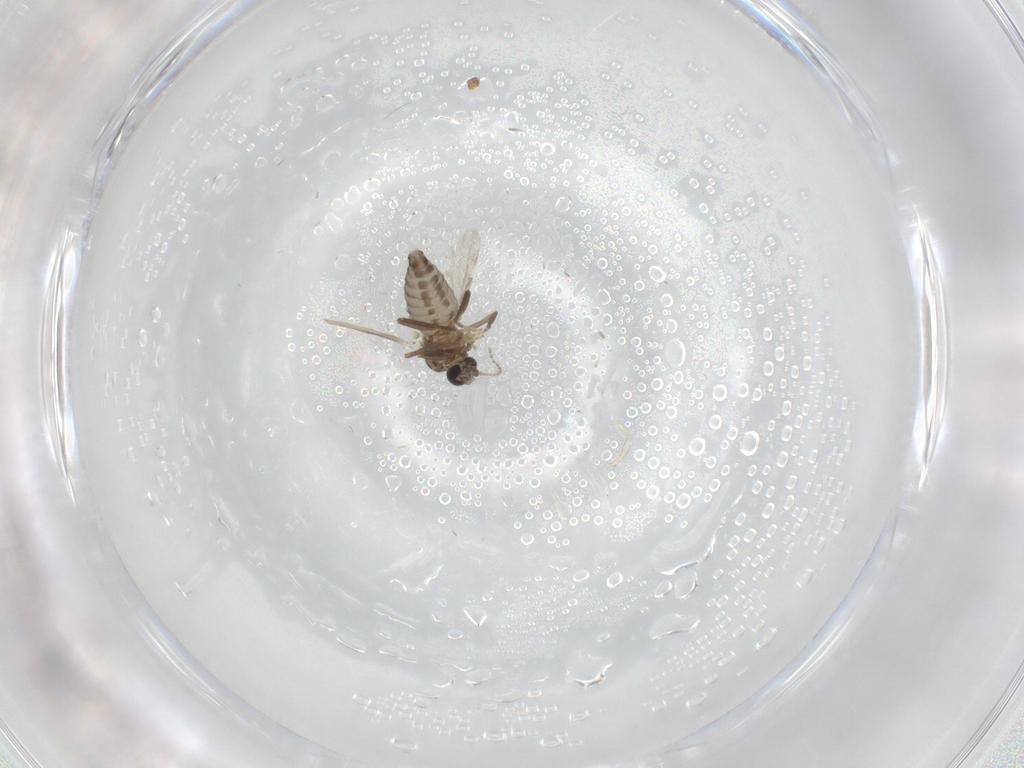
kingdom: Animalia
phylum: Arthropoda
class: Insecta
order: Diptera
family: Ceratopogonidae
